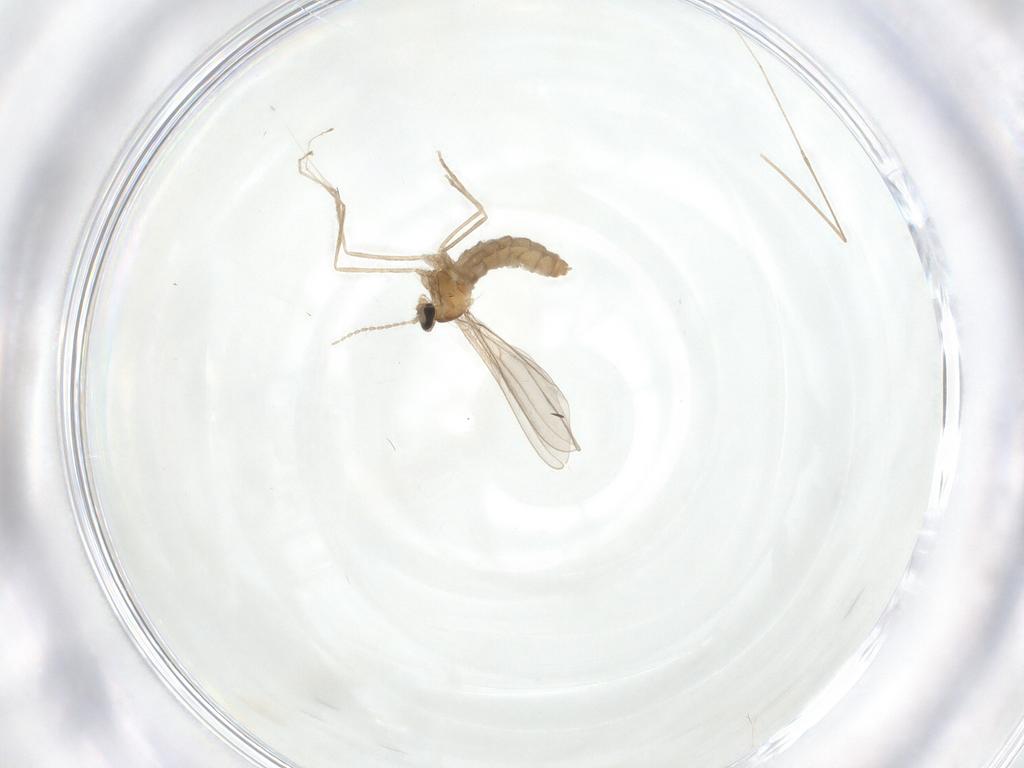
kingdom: Animalia
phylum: Arthropoda
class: Insecta
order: Diptera
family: Cecidomyiidae
